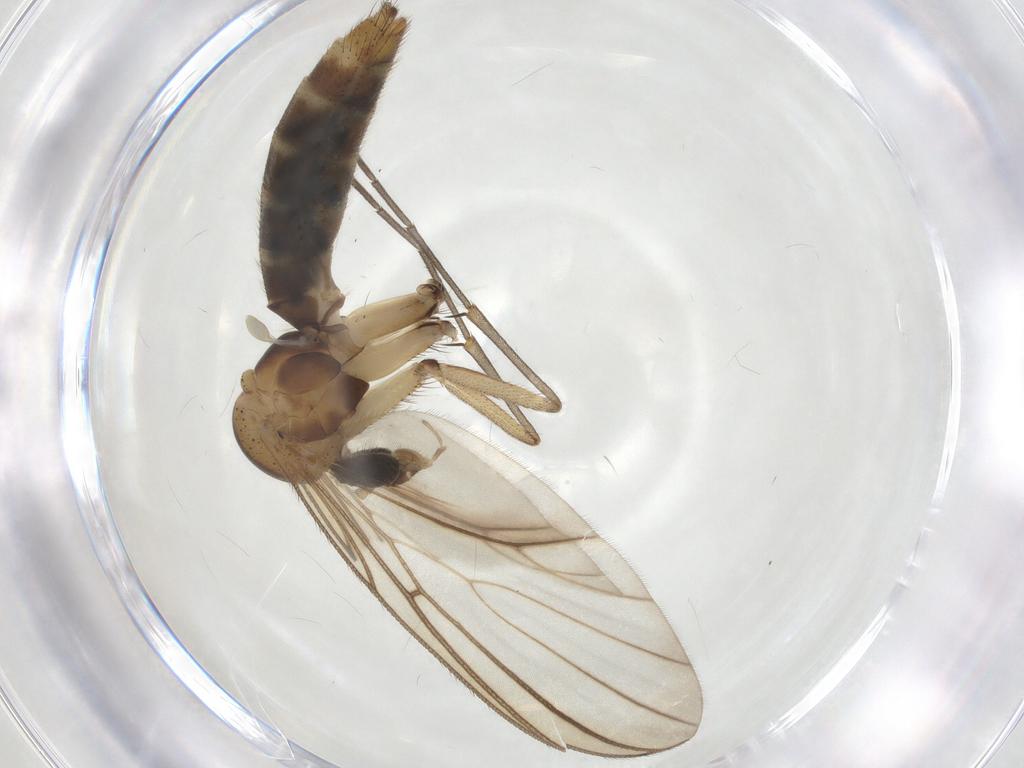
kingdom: Animalia
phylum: Arthropoda
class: Insecta
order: Diptera
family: Mycetophilidae
